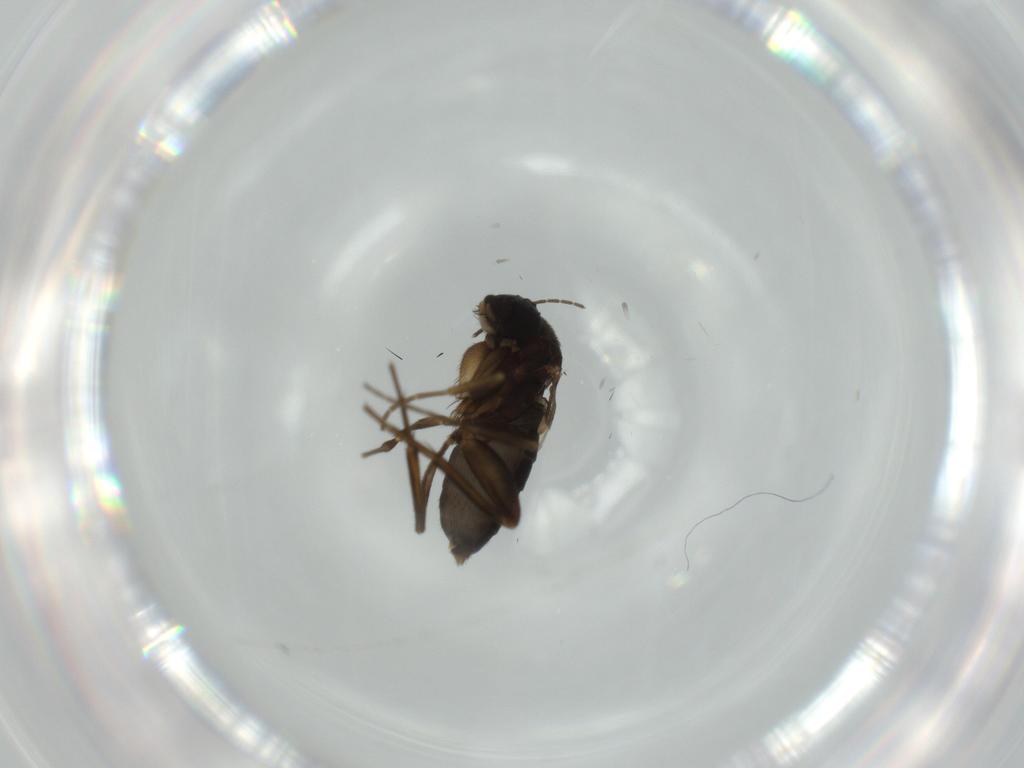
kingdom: Animalia
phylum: Arthropoda
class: Insecta
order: Diptera
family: Phoridae
